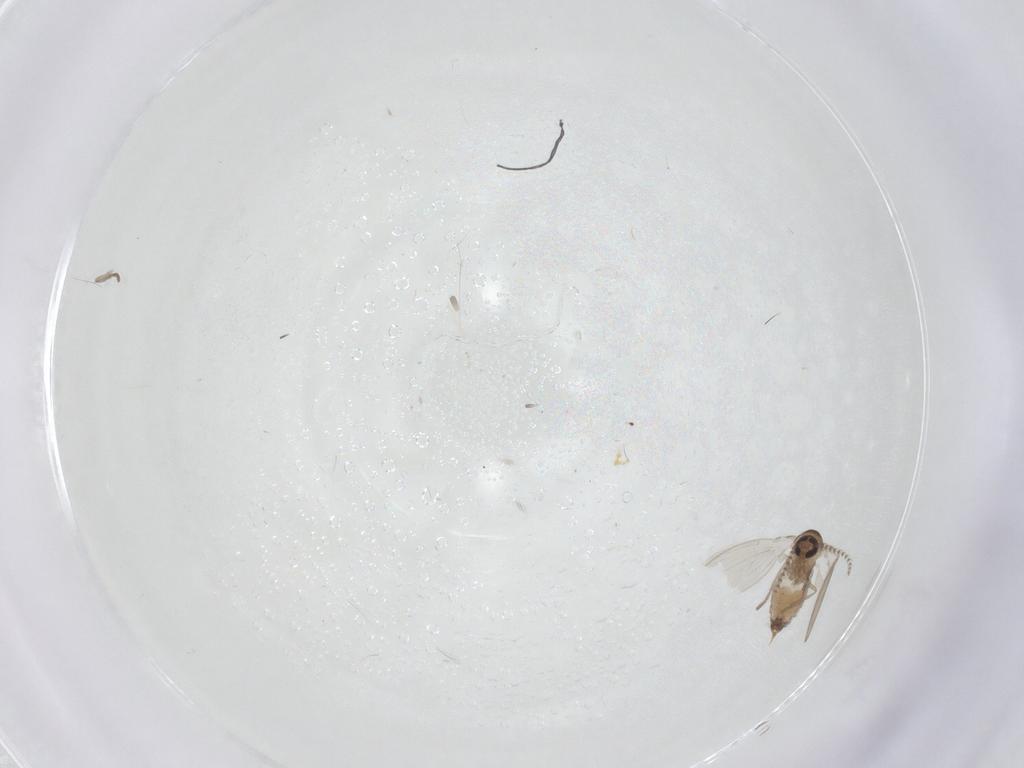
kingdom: Animalia
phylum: Arthropoda
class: Insecta
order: Diptera
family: Psychodidae
